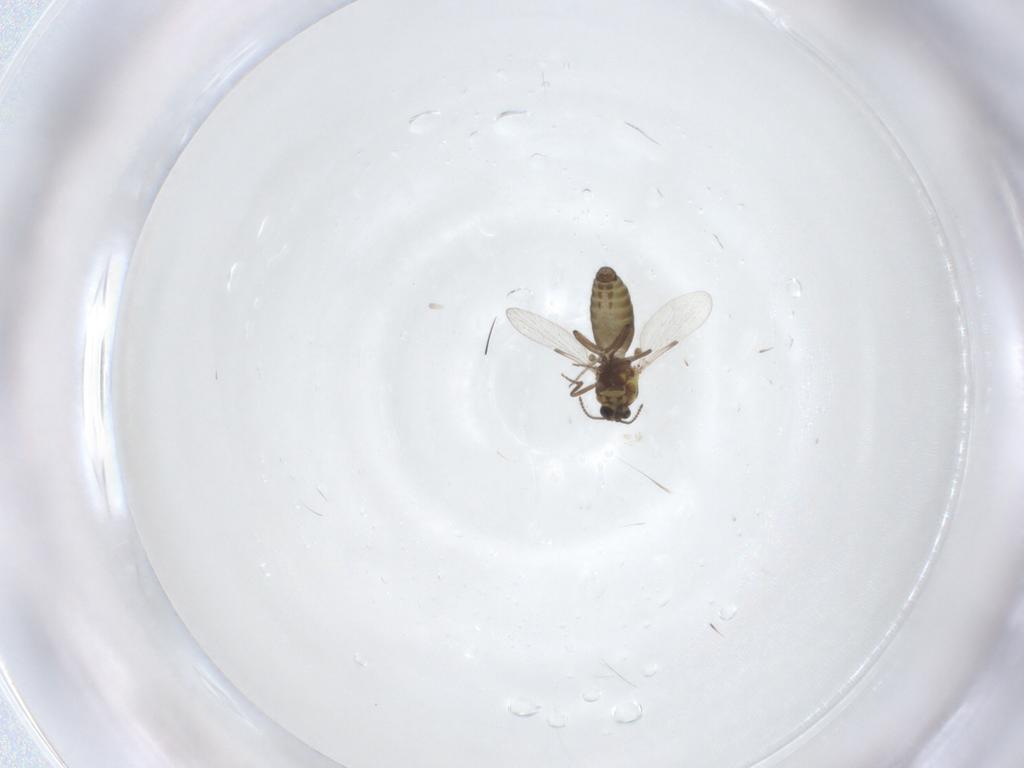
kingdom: Animalia
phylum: Arthropoda
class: Insecta
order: Diptera
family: Ceratopogonidae
